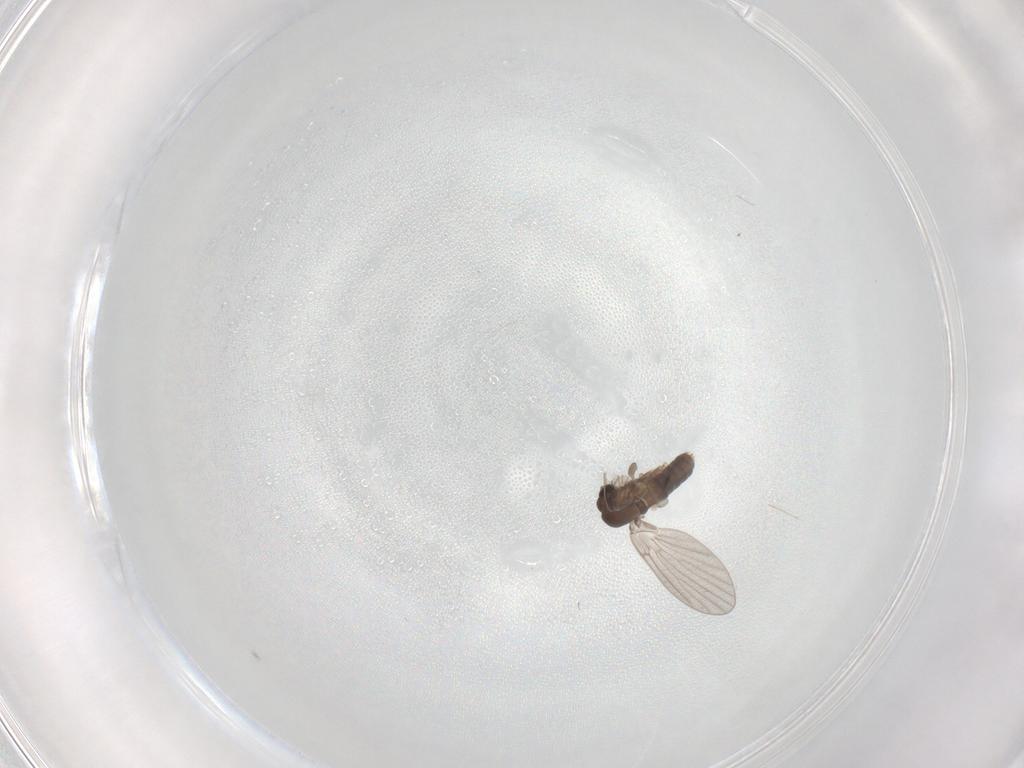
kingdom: Animalia
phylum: Arthropoda
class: Insecta
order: Diptera
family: Phoridae
